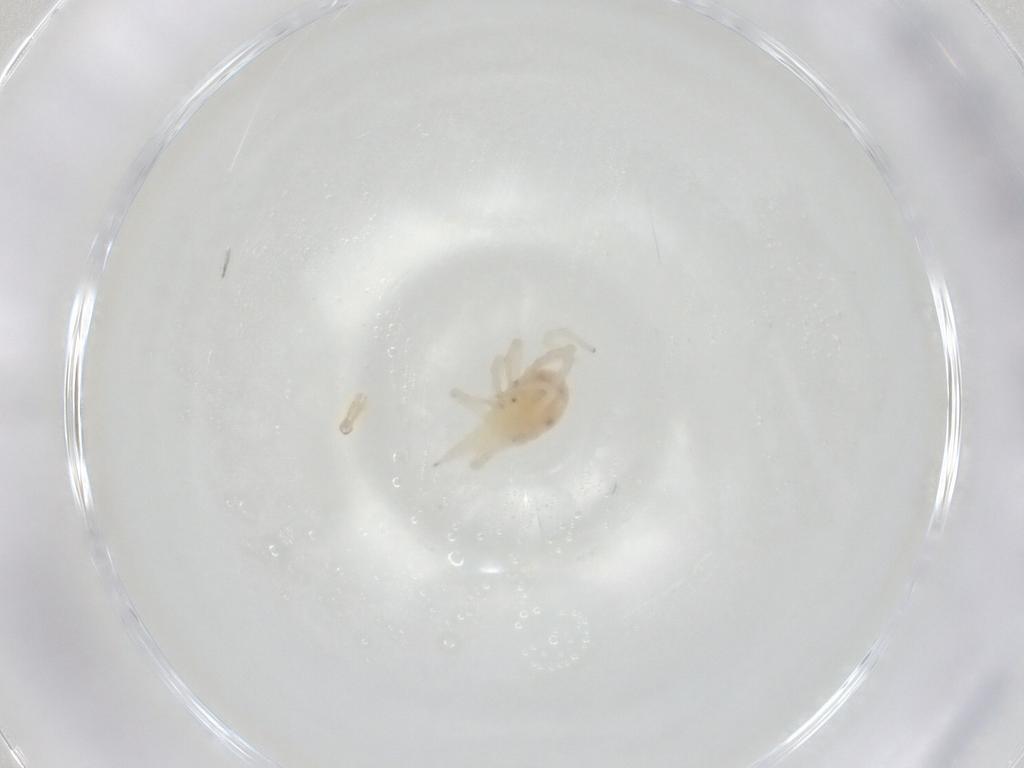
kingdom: Animalia
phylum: Arthropoda
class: Arachnida
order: Trombidiformes
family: Bdellidae
